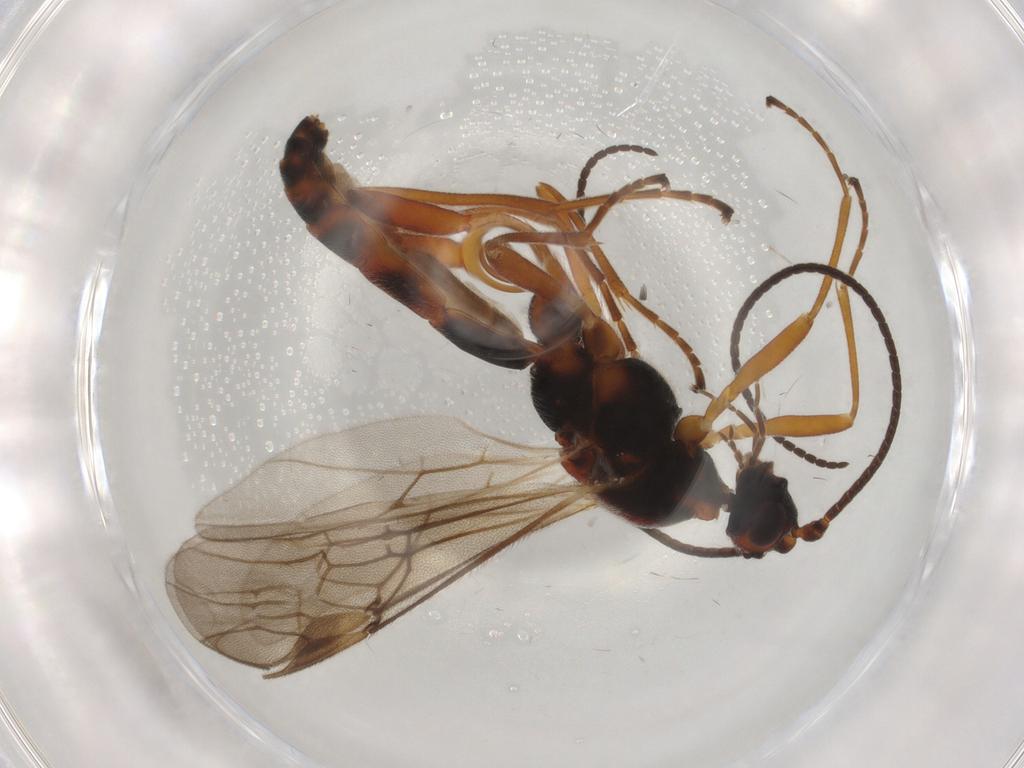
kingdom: Animalia
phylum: Arthropoda
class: Insecta
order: Hymenoptera
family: Braconidae
